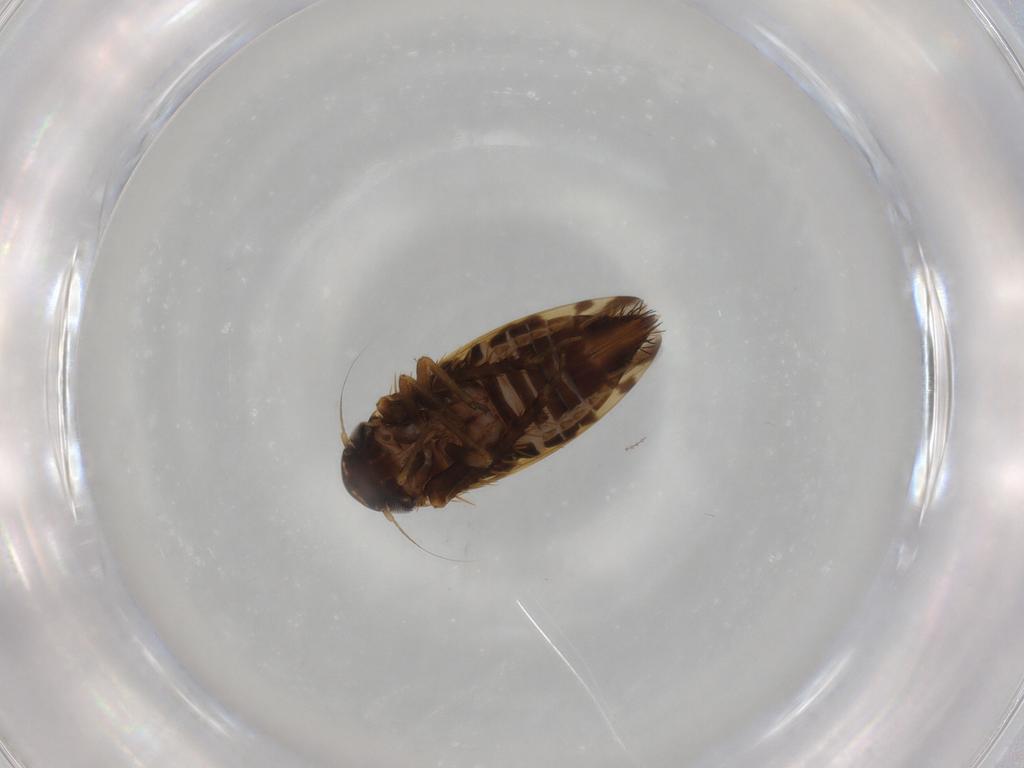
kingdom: Animalia
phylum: Arthropoda
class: Insecta
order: Hemiptera
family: Cicadellidae
